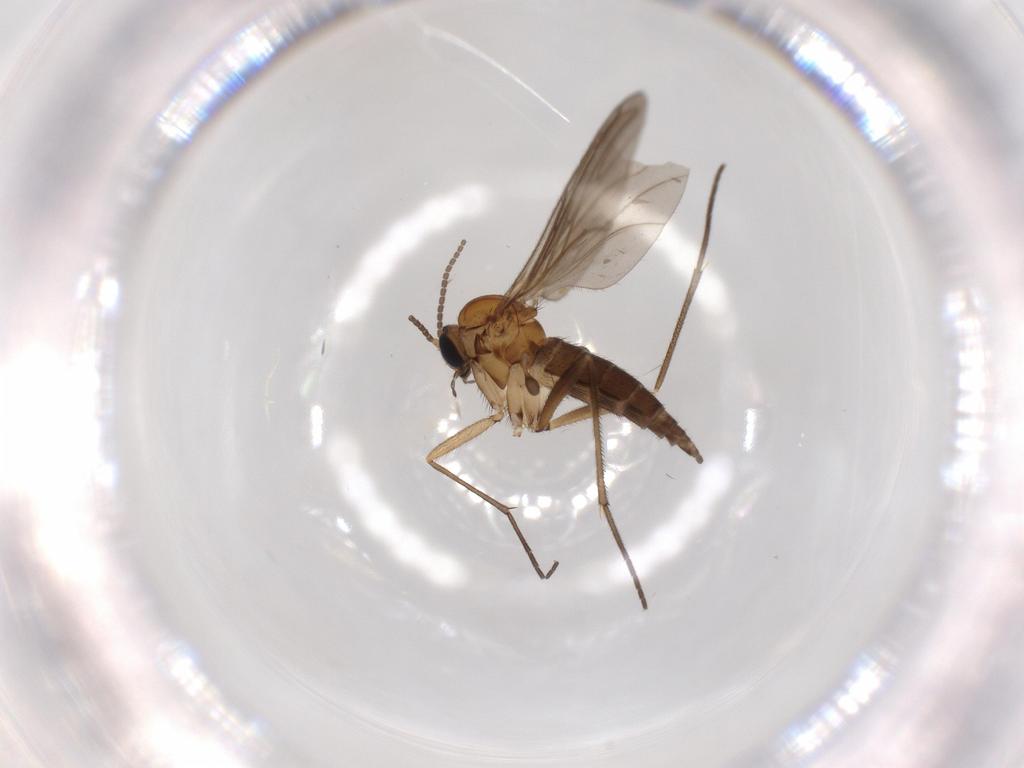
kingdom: Animalia
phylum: Arthropoda
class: Insecta
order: Diptera
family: Sciaridae
